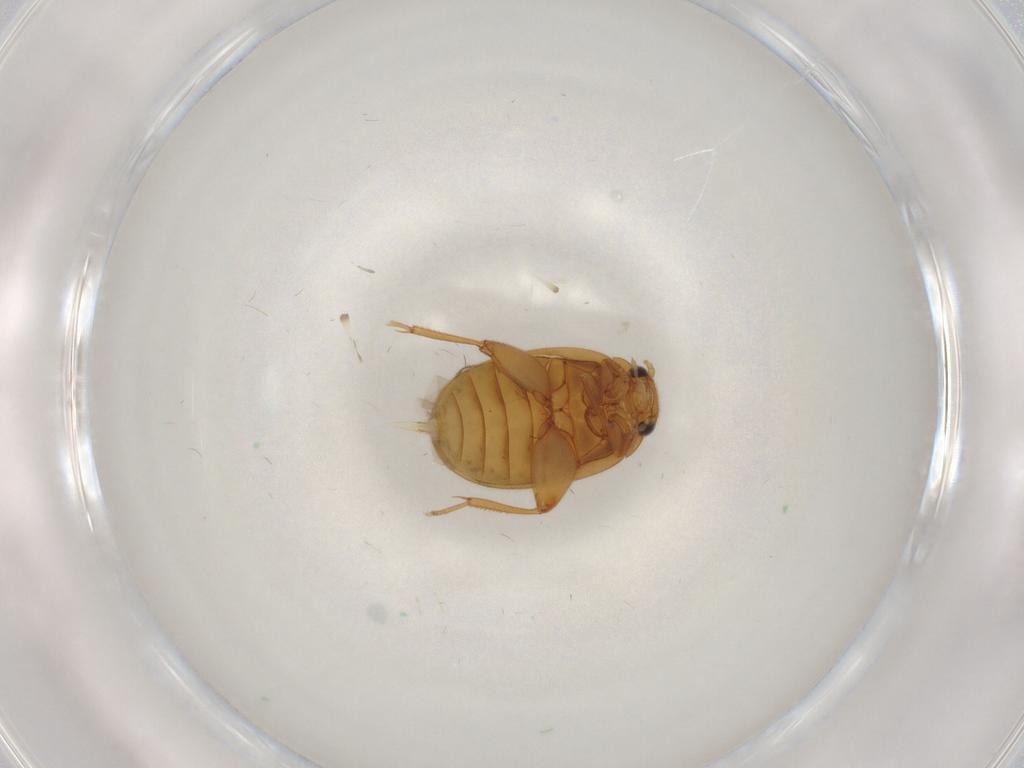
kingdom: Animalia
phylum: Arthropoda
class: Insecta
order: Coleoptera
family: Scirtidae
